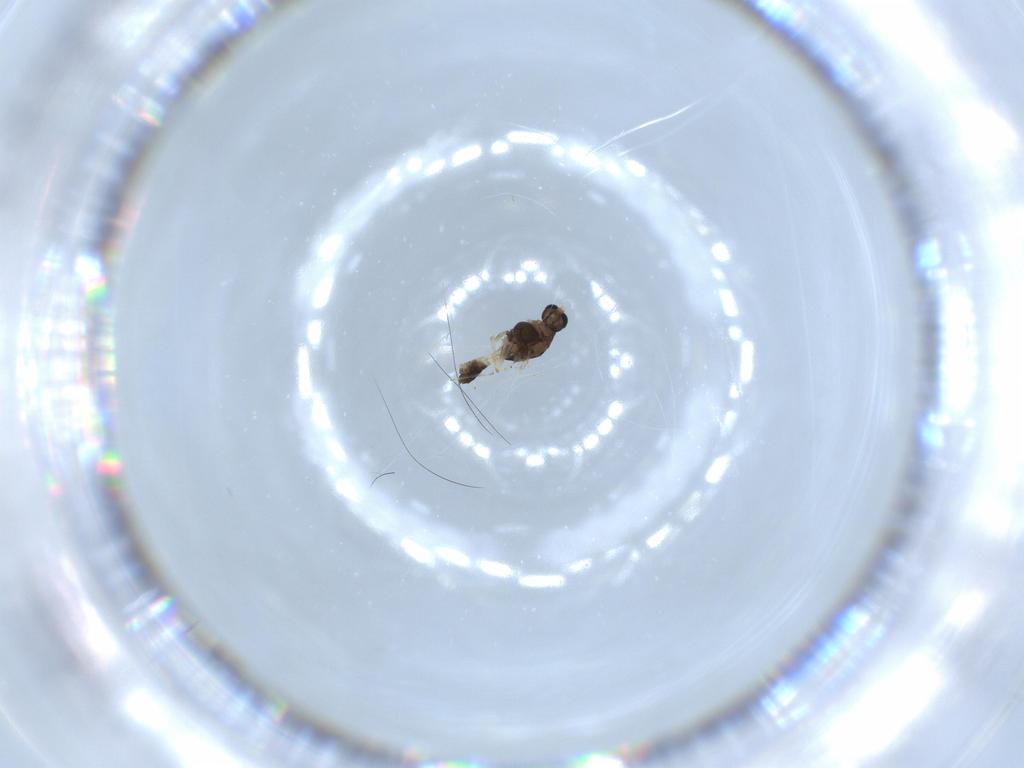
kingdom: Animalia
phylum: Arthropoda
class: Insecta
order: Diptera
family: Chironomidae
